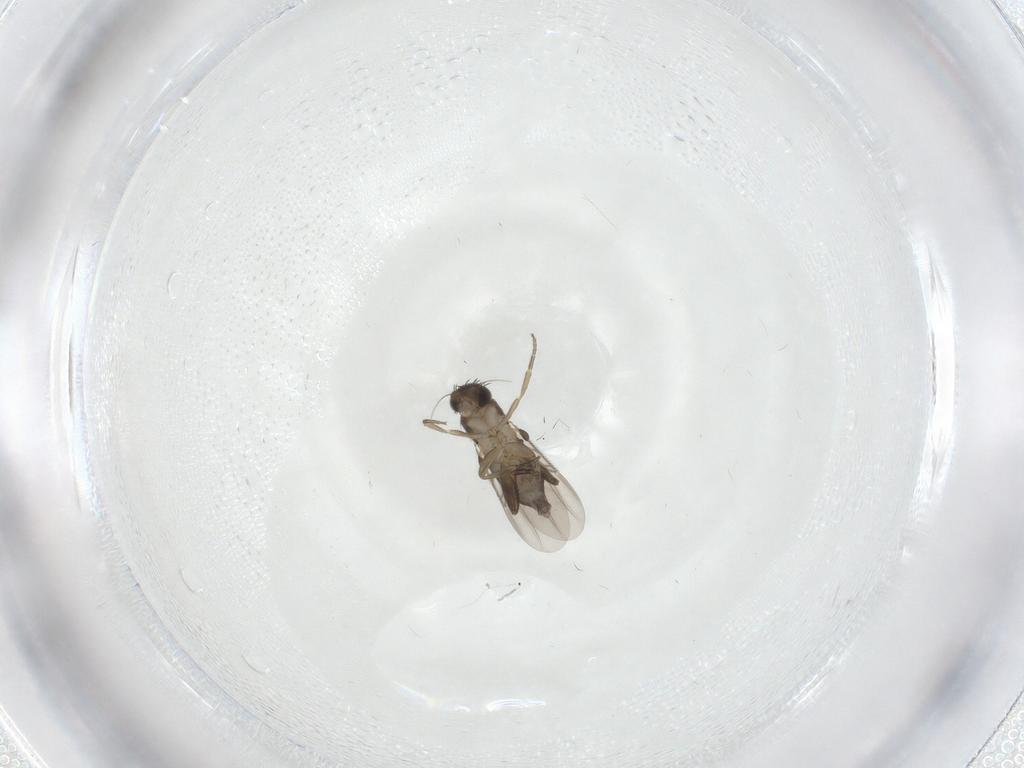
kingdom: Animalia
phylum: Arthropoda
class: Insecta
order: Diptera
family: Phoridae
